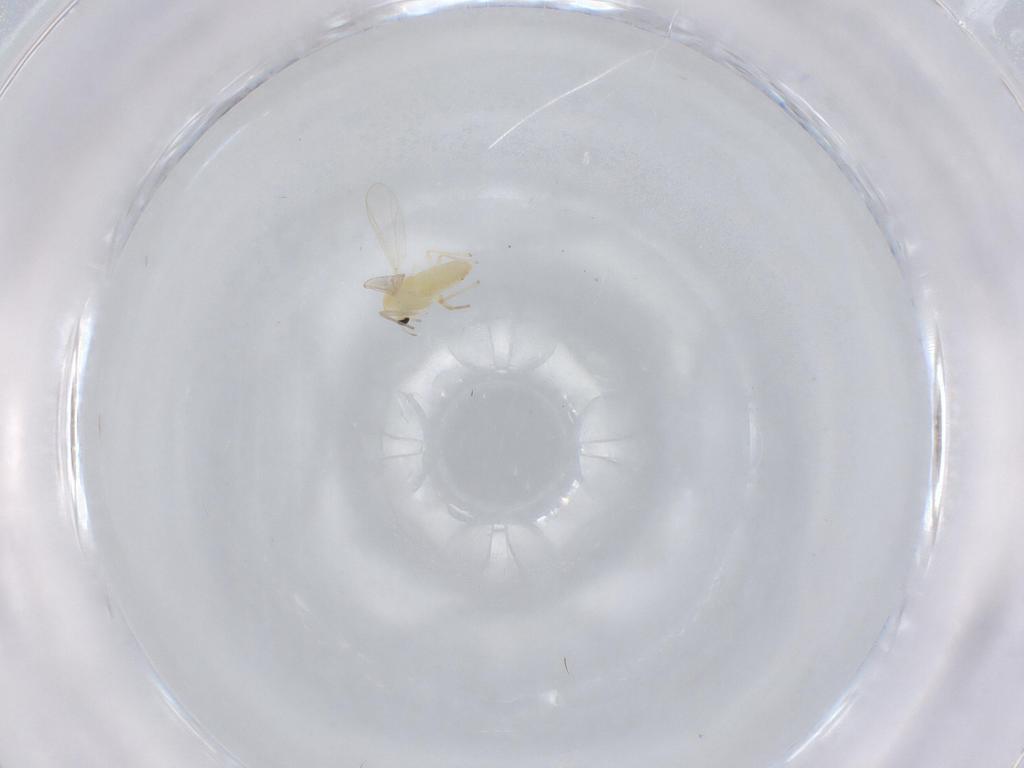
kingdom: Animalia
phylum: Arthropoda
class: Insecta
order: Diptera
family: Chironomidae
